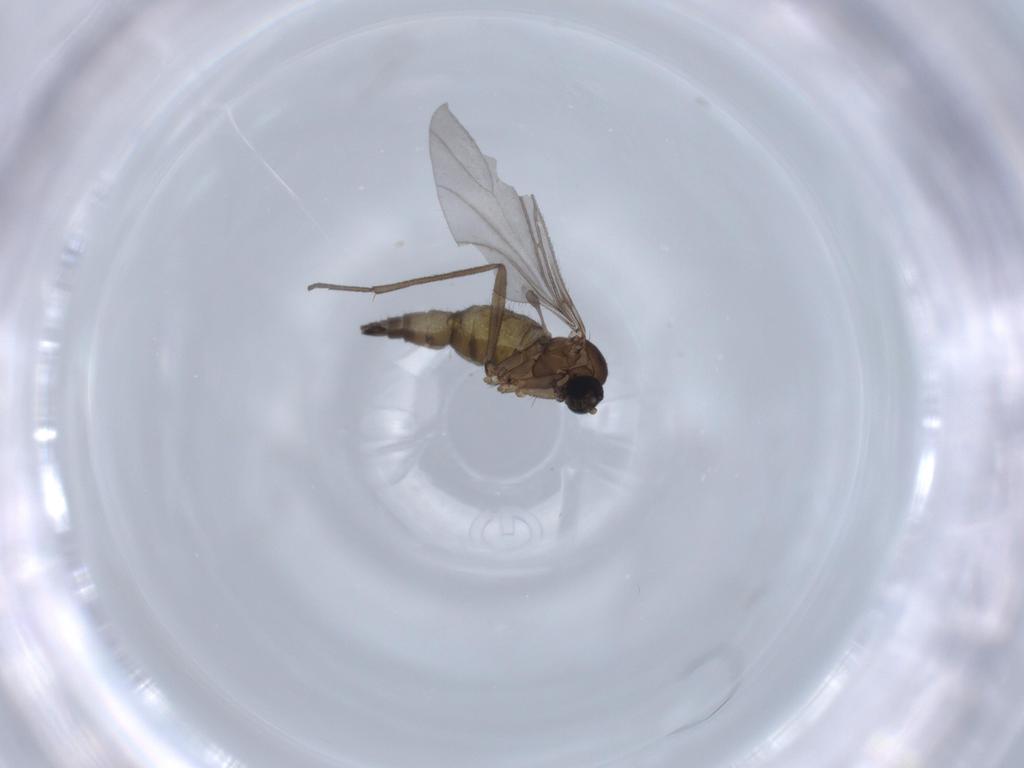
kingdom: Animalia
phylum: Arthropoda
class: Insecta
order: Diptera
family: Sciaridae
